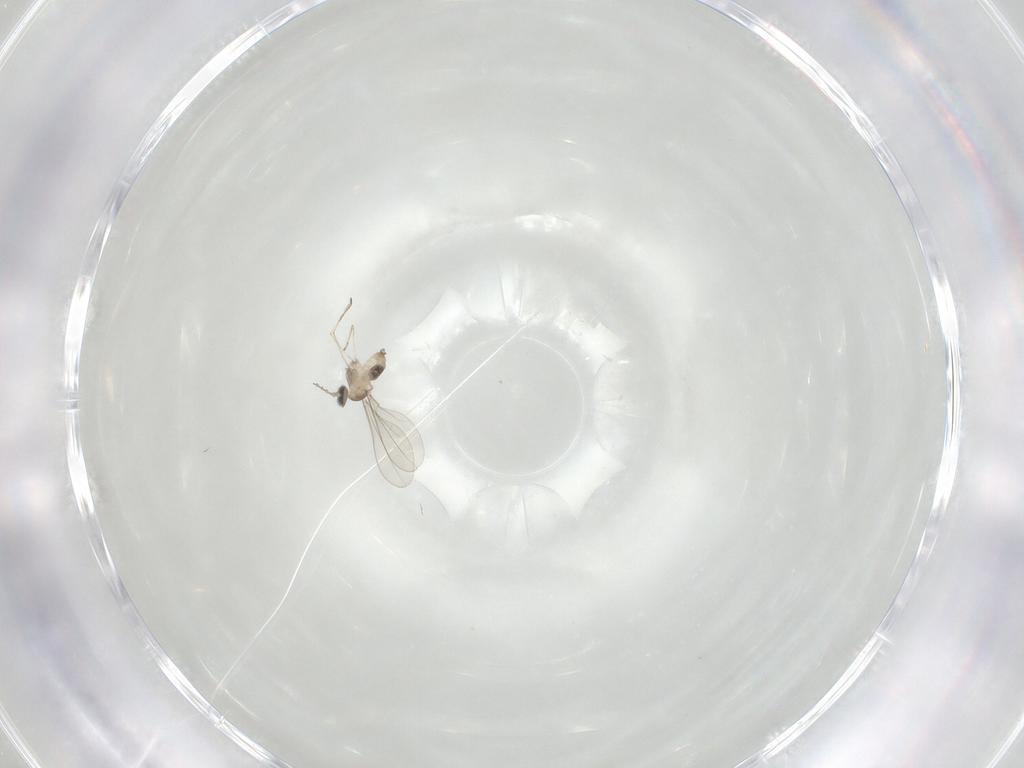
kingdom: Animalia
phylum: Arthropoda
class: Insecta
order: Diptera
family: Cecidomyiidae
